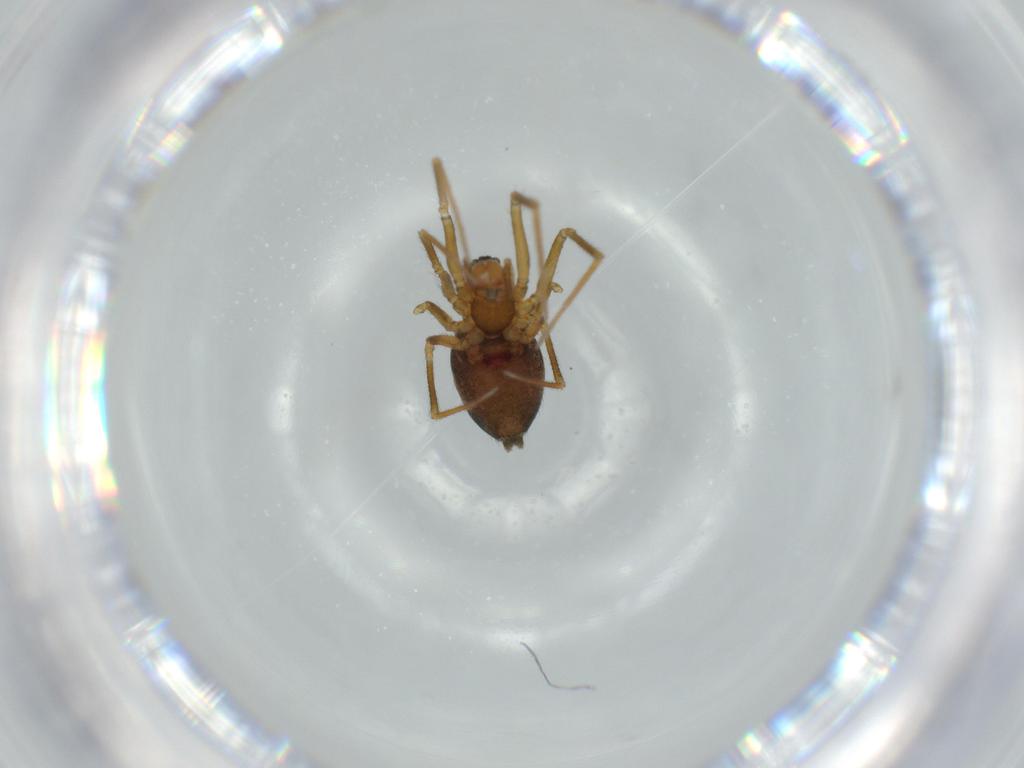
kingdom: Animalia
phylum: Arthropoda
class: Arachnida
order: Araneae
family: Linyphiidae
